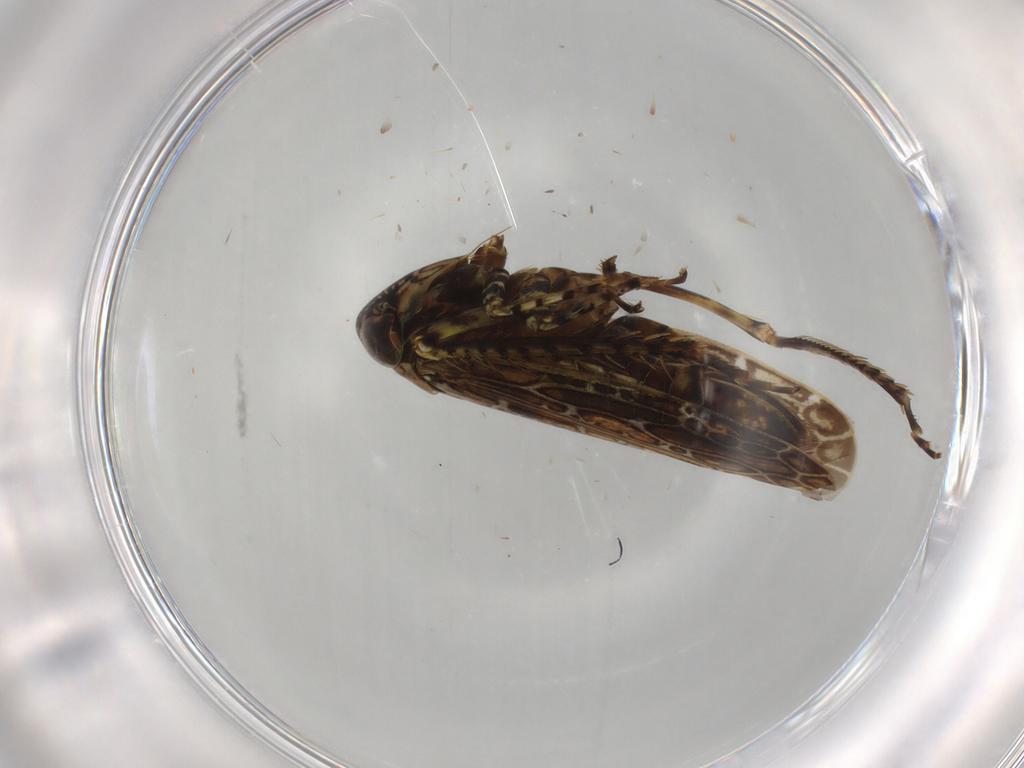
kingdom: Animalia
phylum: Arthropoda
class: Insecta
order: Hemiptera
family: Cicadellidae
